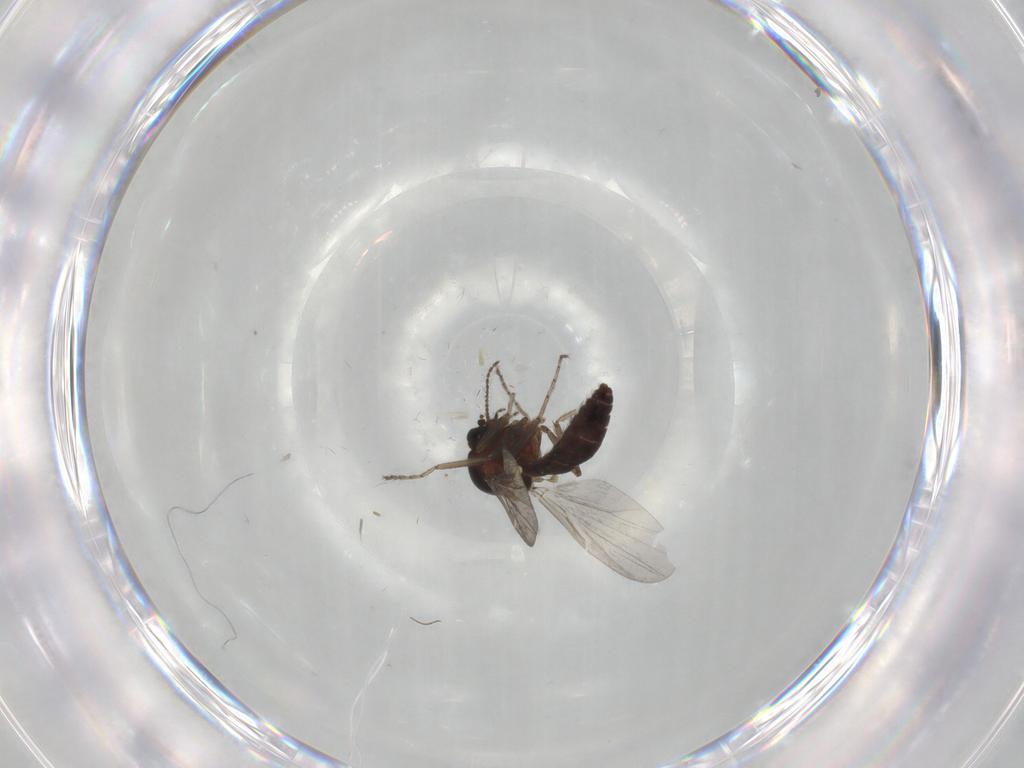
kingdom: Animalia
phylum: Arthropoda
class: Insecta
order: Diptera
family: Ceratopogonidae
